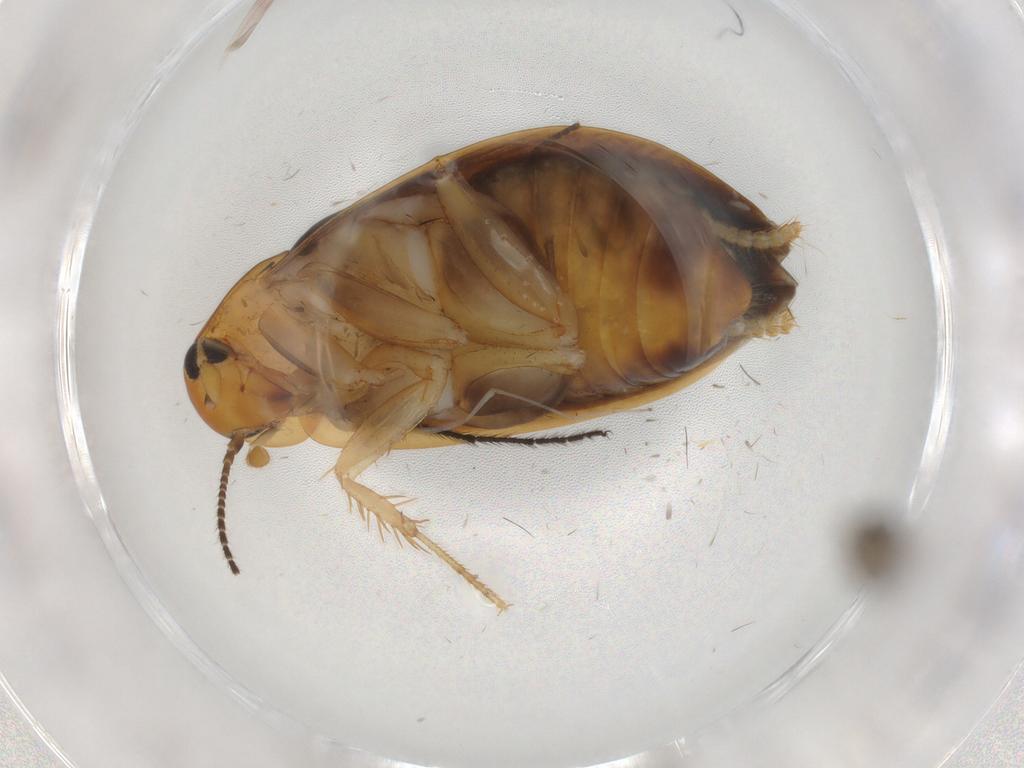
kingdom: Animalia
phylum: Arthropoda
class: Insecta
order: Blattodea
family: Tryonicidae
